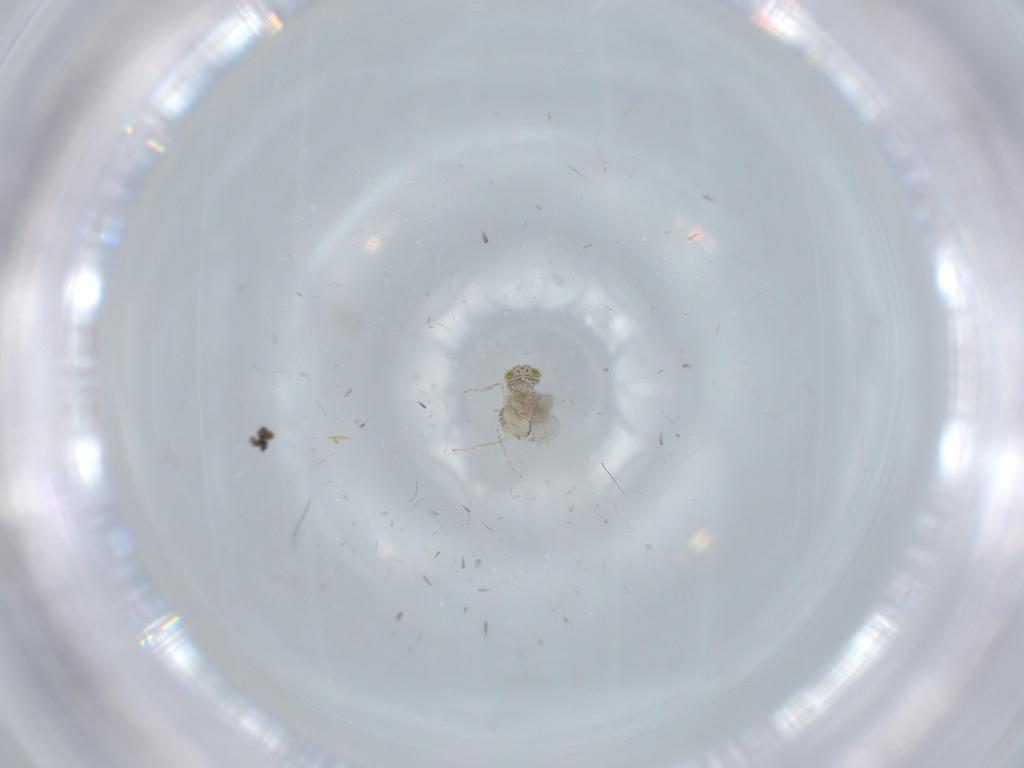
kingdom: Animalia
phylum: Arthropoda
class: Insecta
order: Hymenoptera
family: Aphelinidae
